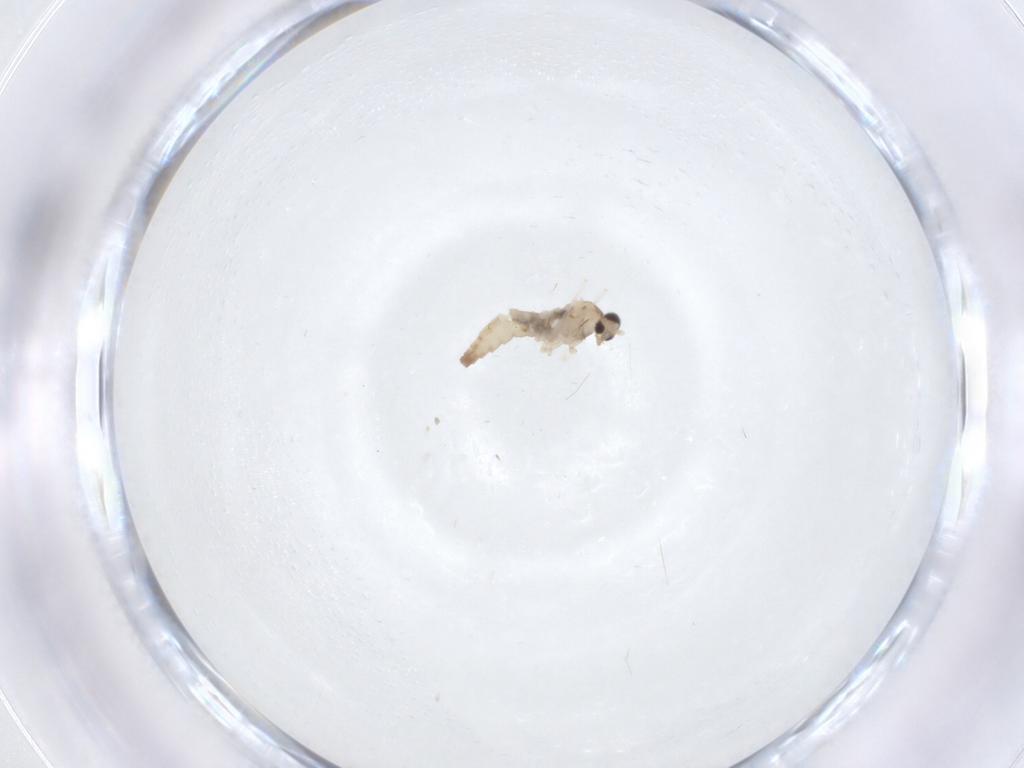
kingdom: Animalia
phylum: Arthropoda
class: Insecta
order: Diptera
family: Cecidomyiidae
